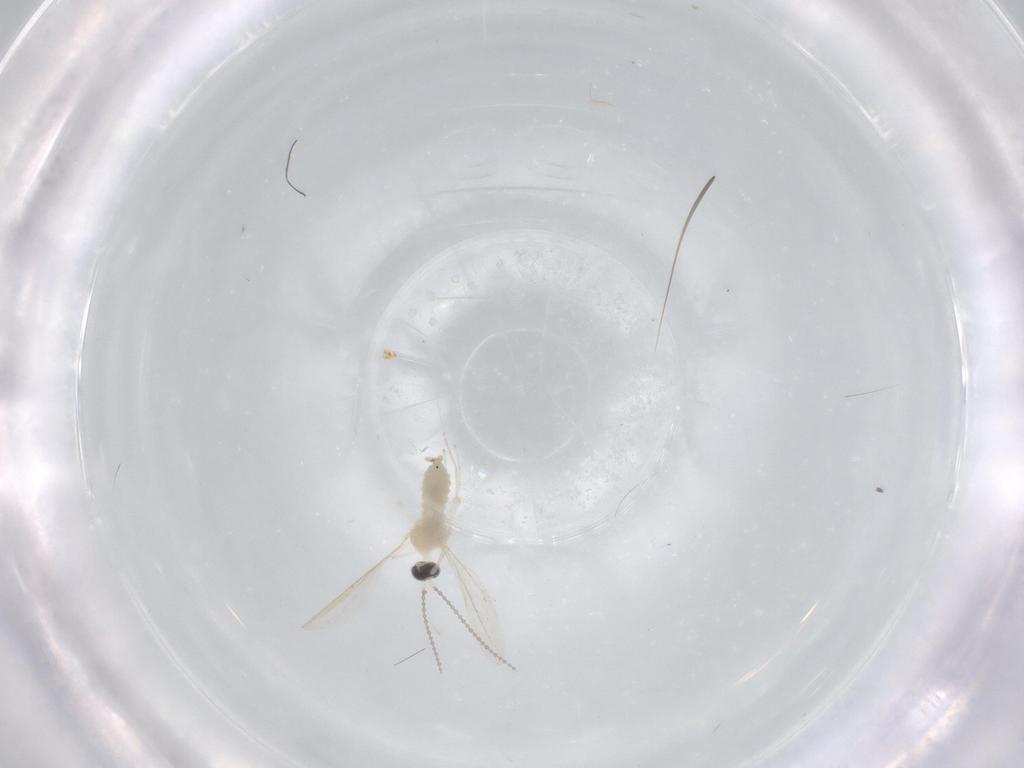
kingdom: Animalia
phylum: Arthropoda
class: Insecta
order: Diptera
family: Cecidomyiidae
